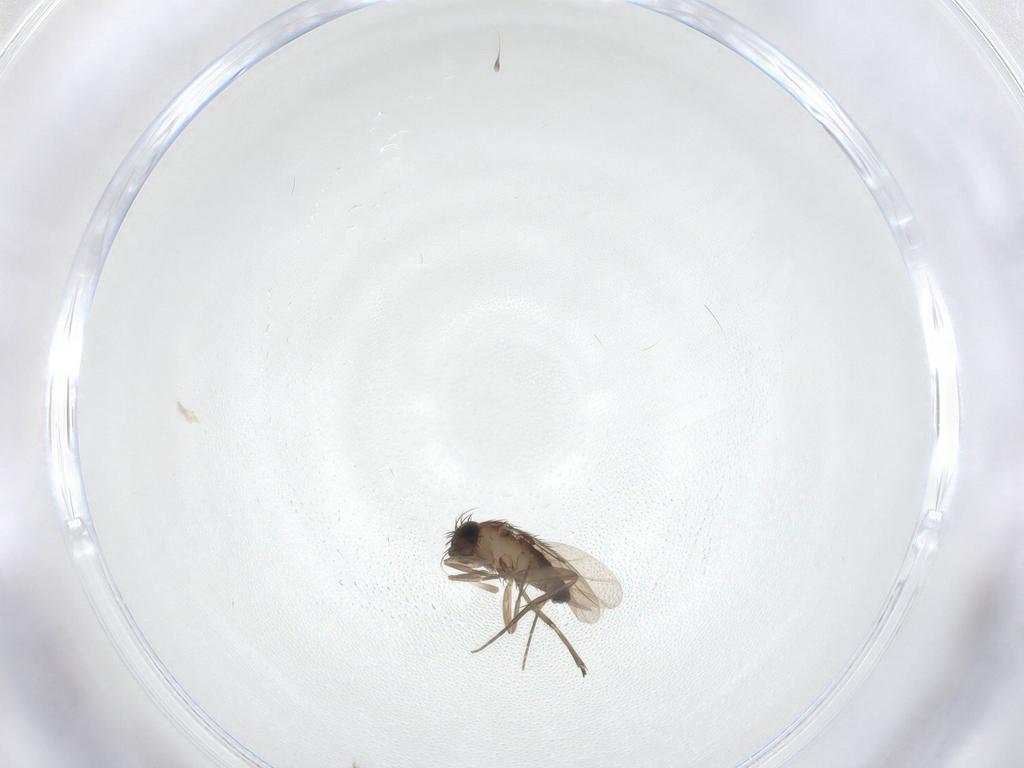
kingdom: Animalia
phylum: Arthropoda
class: Insecta
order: Diptera
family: Phoridae
